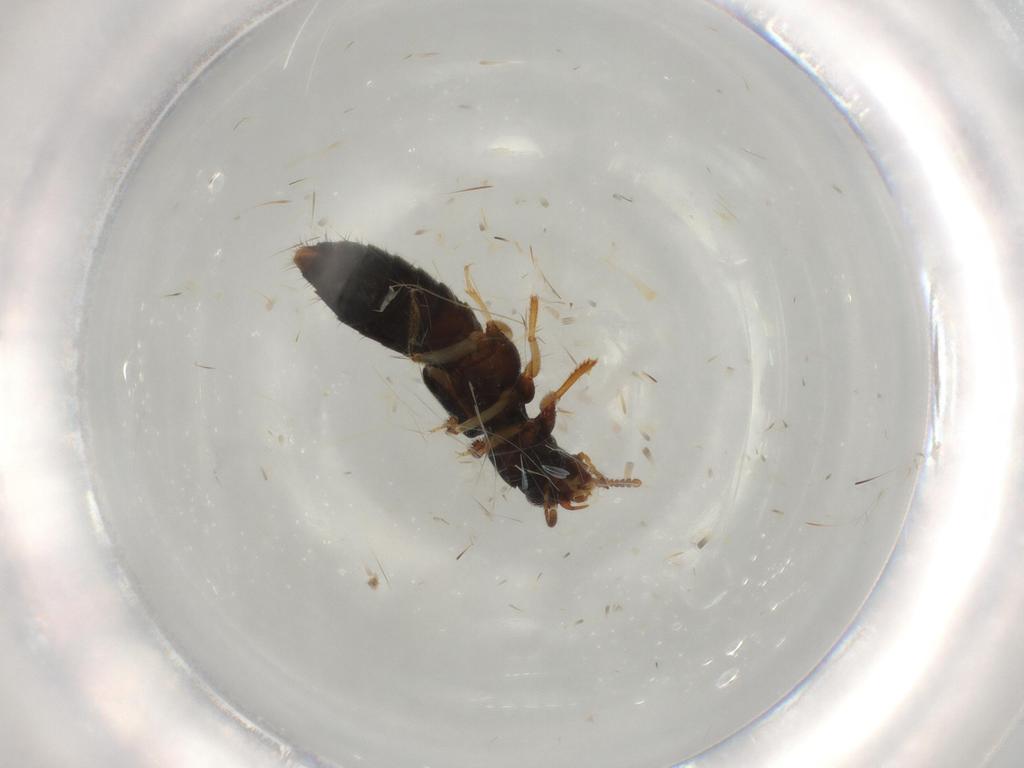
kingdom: Animalia
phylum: Arthropoda
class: Insecta
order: Coleoptera
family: Staphylinidae
